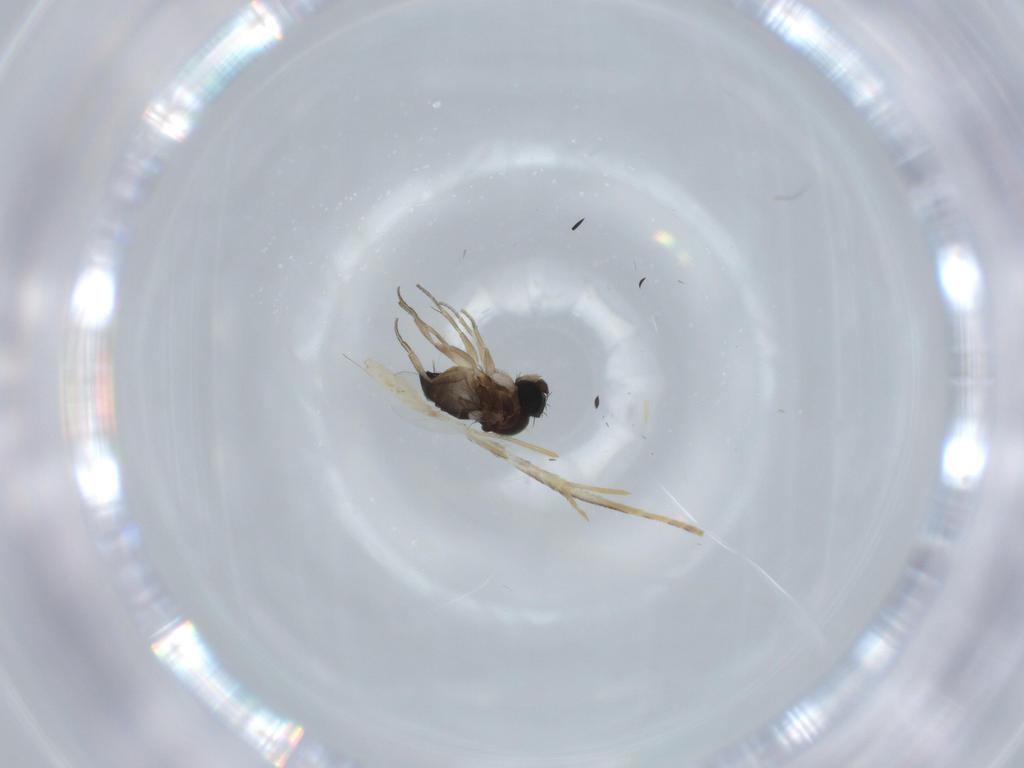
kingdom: Animalia
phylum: Arthropoda
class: Insecta
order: Diptera
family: Phoridae
